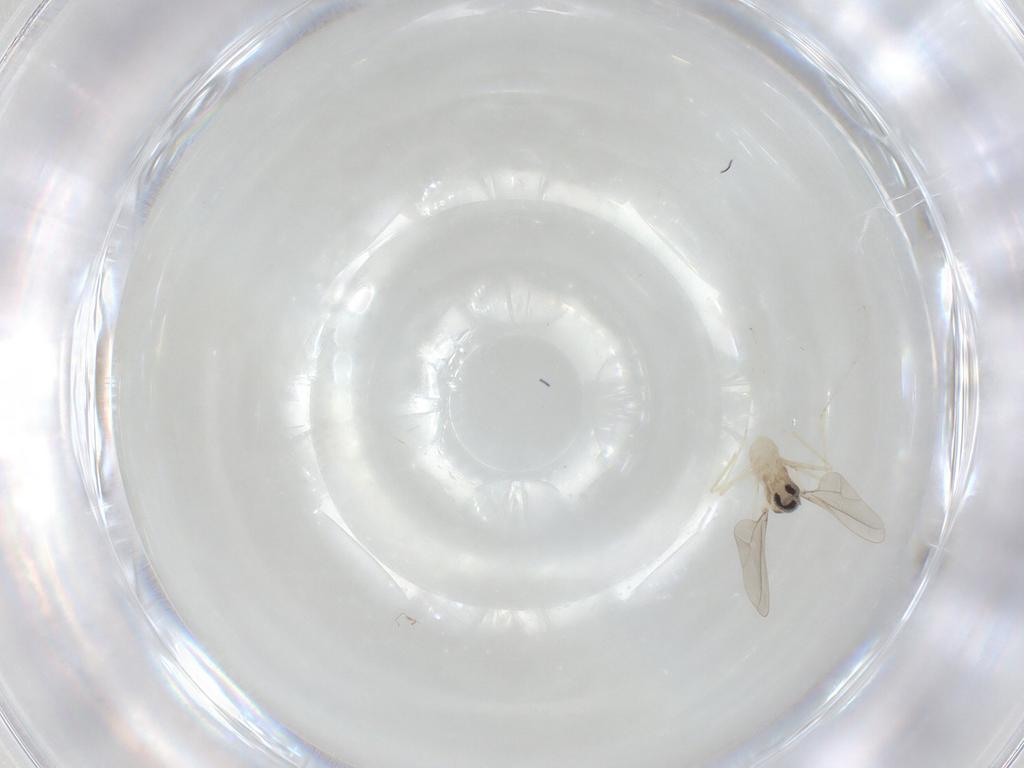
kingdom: Animalia
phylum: Arthropoda
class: Insecta
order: Diptera
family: Cecidomyiidae
